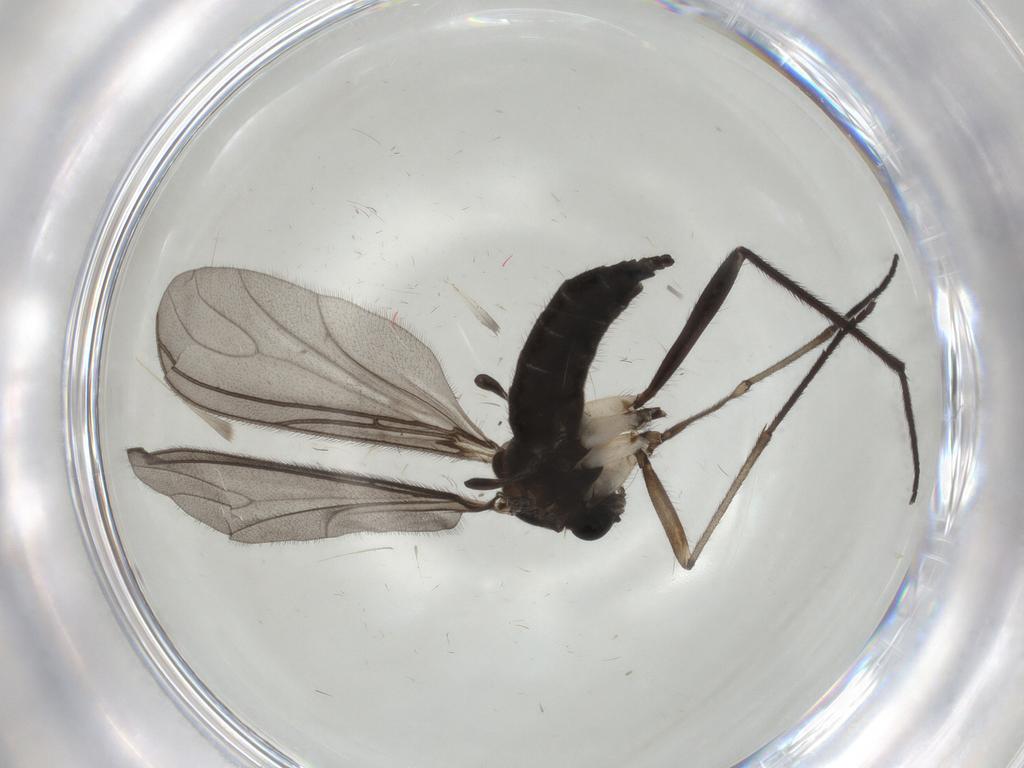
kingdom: Animalia
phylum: Arthropoda
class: Insecta
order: Diptera
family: Sciaridae
